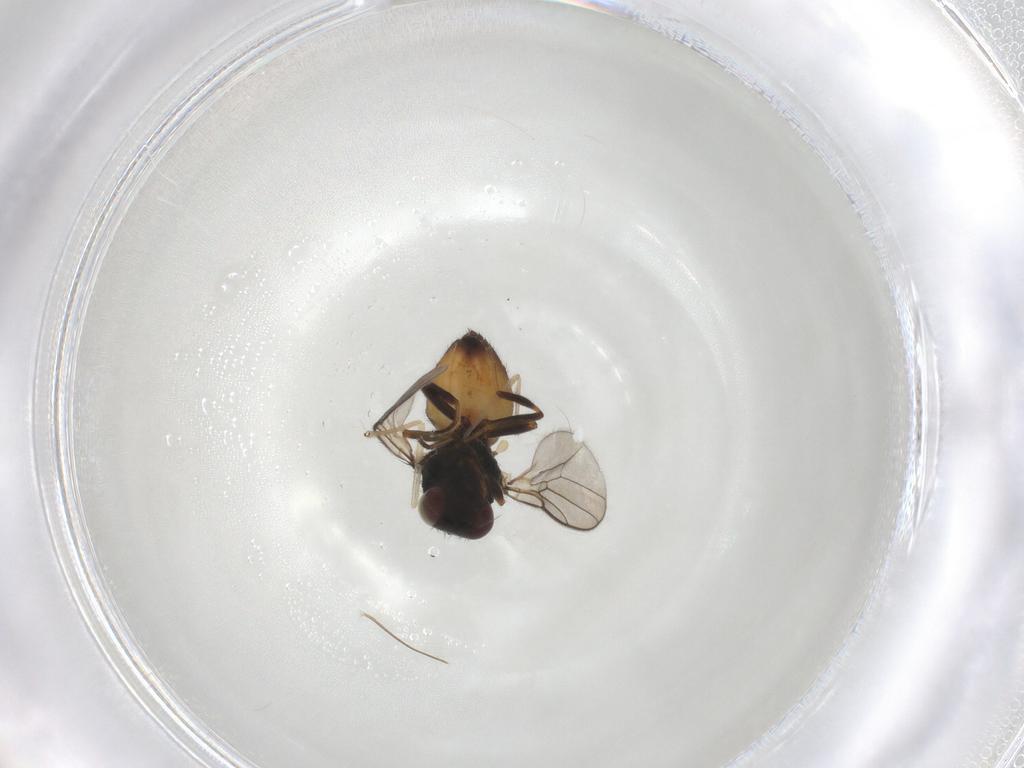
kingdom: Animalia
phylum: Arthropoda
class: Insecta
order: Diptera
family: Chloropidae
